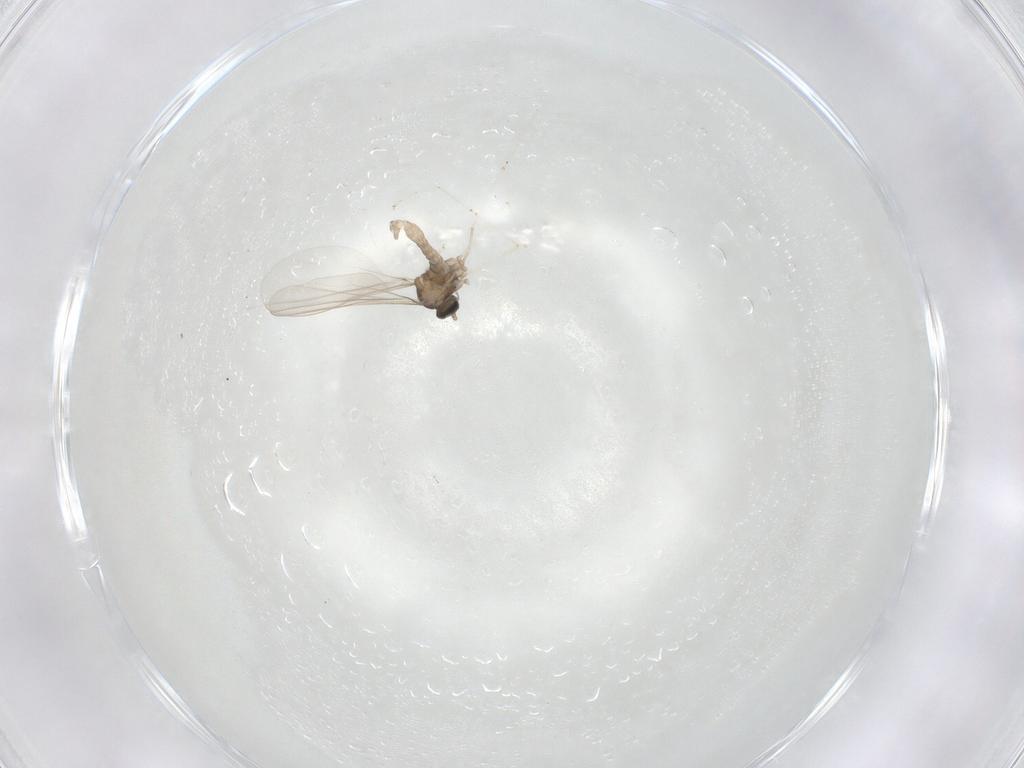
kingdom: Animalia
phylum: Arthropoda
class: Insecta
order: Diptera
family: Cecidomyiidae
